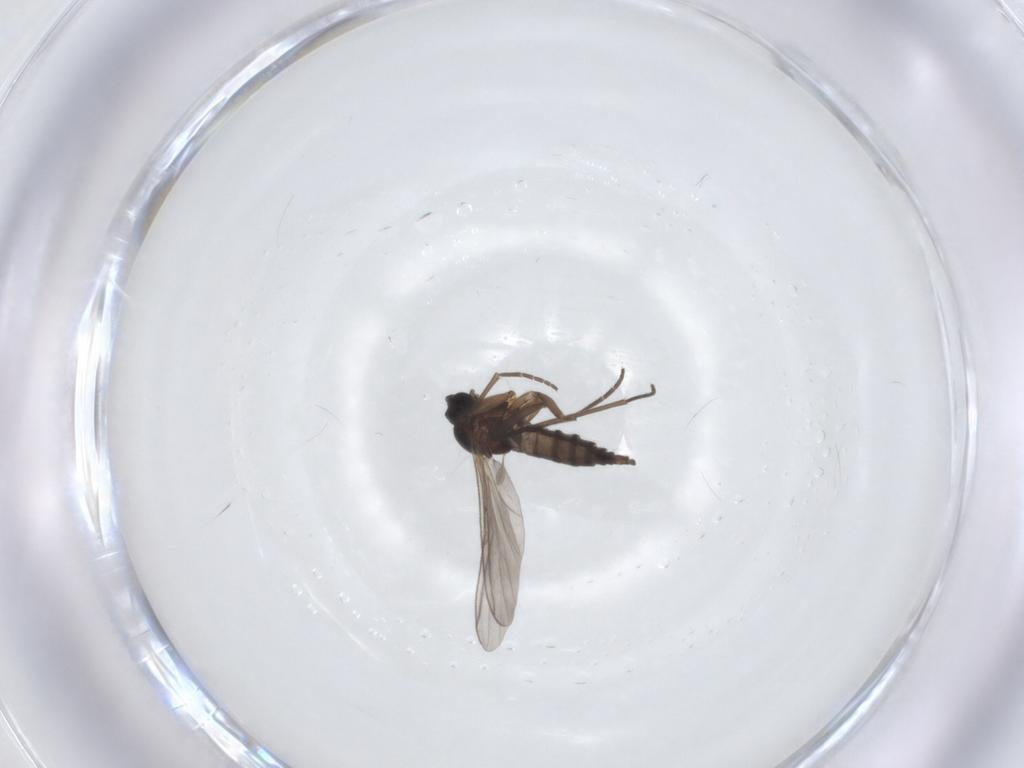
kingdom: Animalia
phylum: Arthropoda
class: Insecta
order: Diptera
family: Sciaridae
